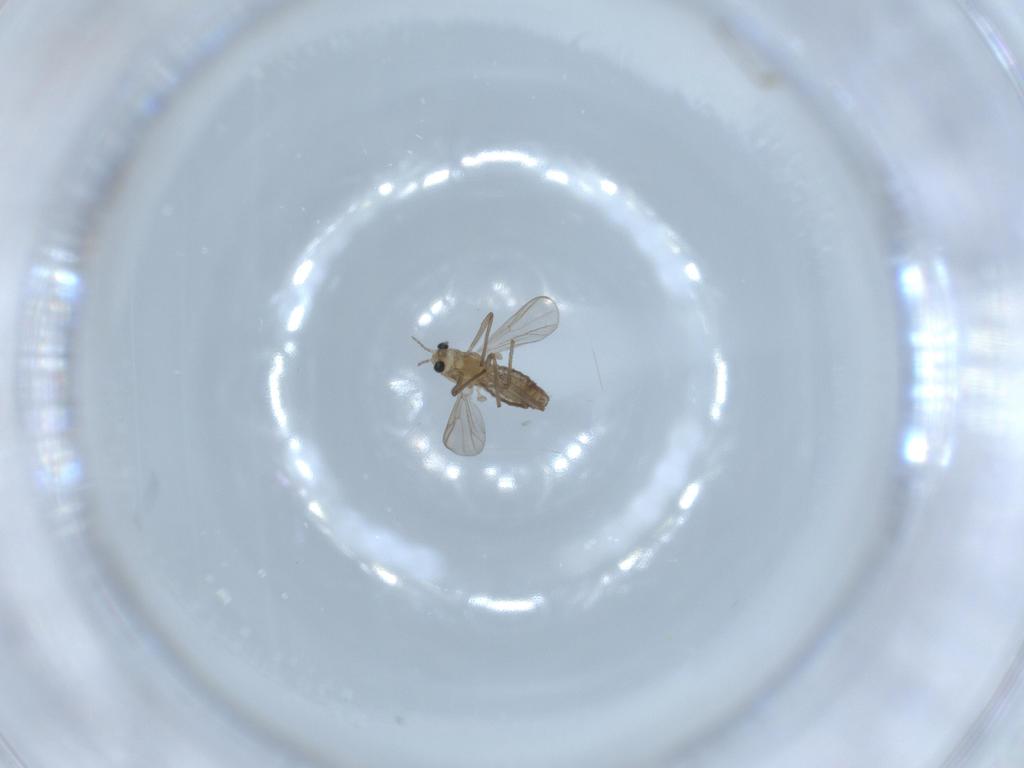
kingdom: Animalia
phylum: Arthropoda
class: Insecta
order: Diptera
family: Chironomidae
